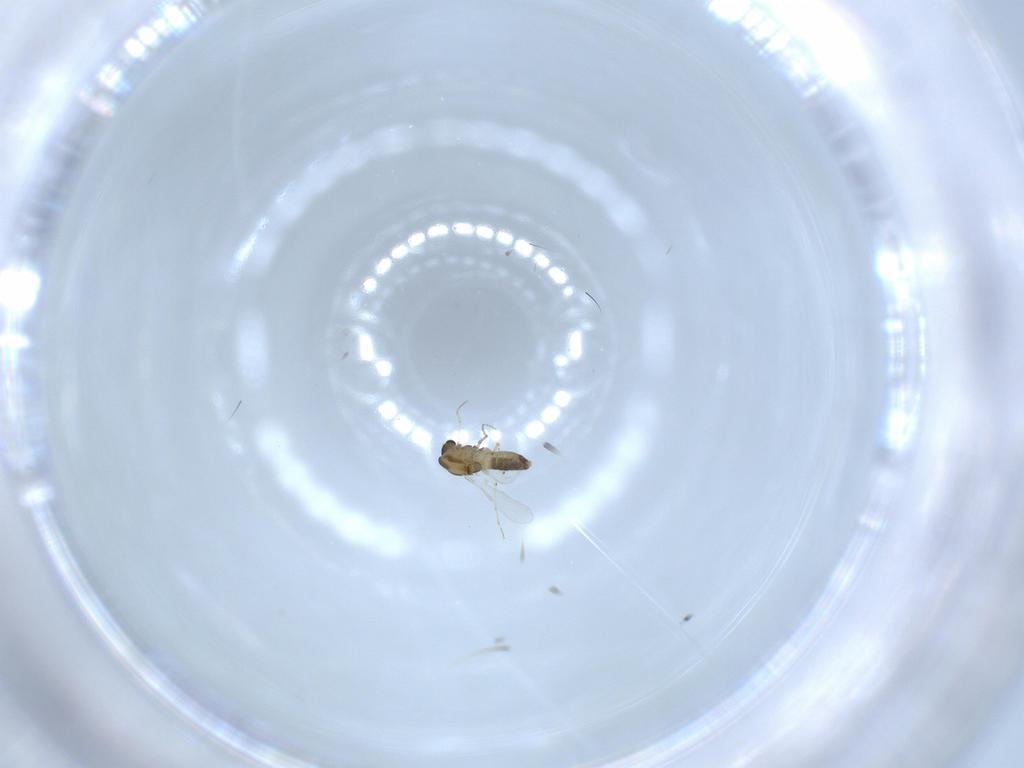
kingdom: Animalia
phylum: Arthropoda
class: Insecta
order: Diptera
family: Chironomidae
